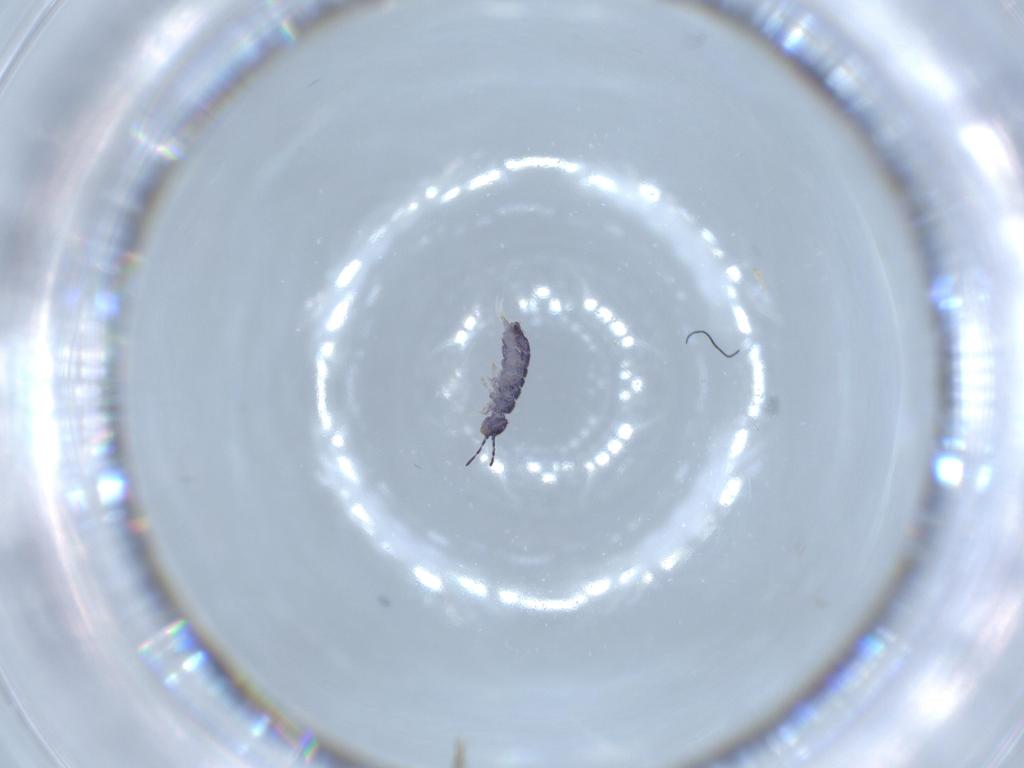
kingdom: Animalia
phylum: Arthropoda
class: Collembola
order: Entomobryomorpha
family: Isotomidae
